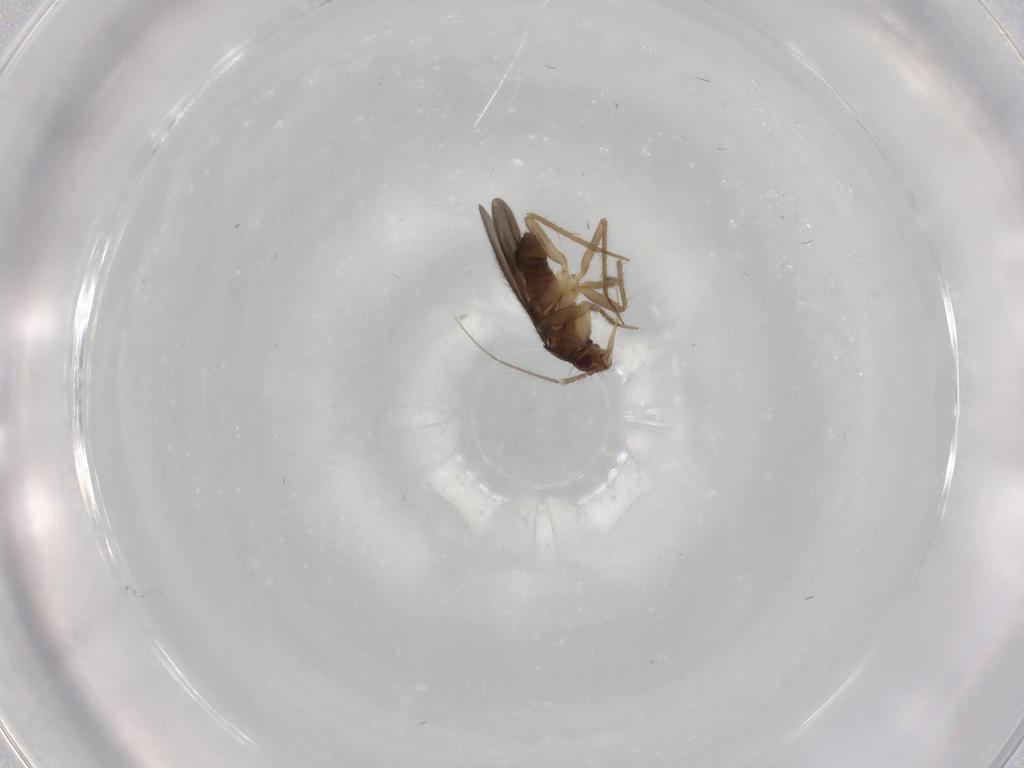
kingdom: Animalia
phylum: Arthropoda
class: Insecta
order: Hemiptera
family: Ceratocombidae
